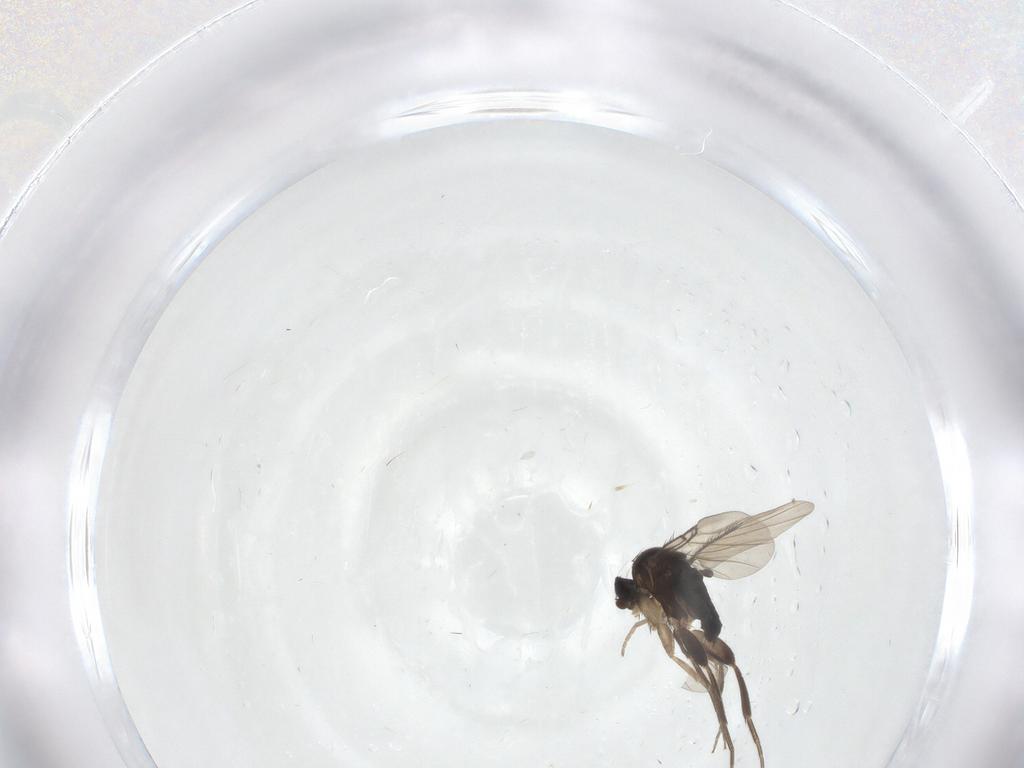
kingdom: Animalia
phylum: Arthropoda
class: Insecta
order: Diptera
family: Phoridae
